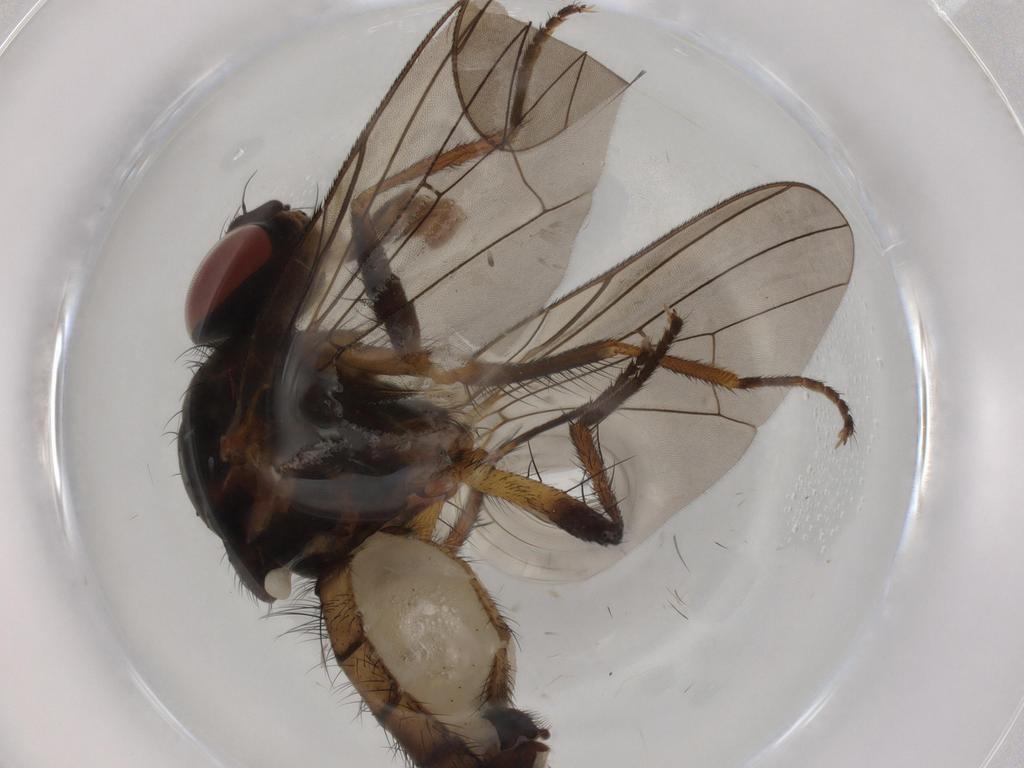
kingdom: Animalia
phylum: Arthropoda
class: Insecta
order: Diptera
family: Anthomyiidae
